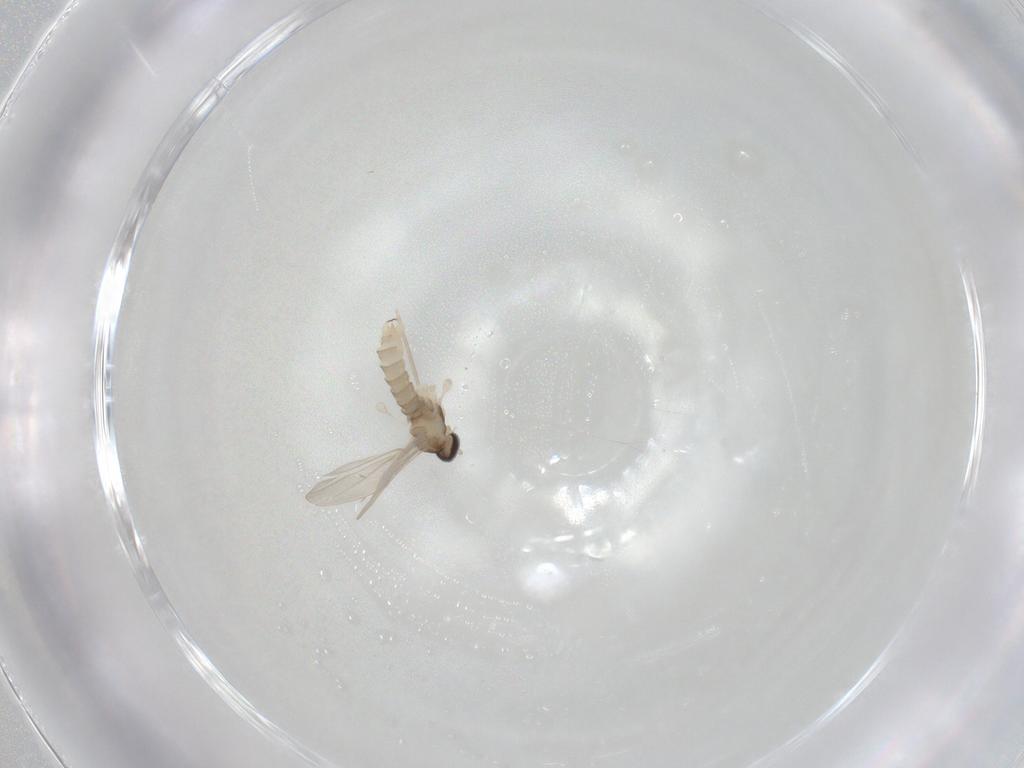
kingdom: Animalia
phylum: Arthropoda
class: Insecta
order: Diptera
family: Cecidomyiidae
